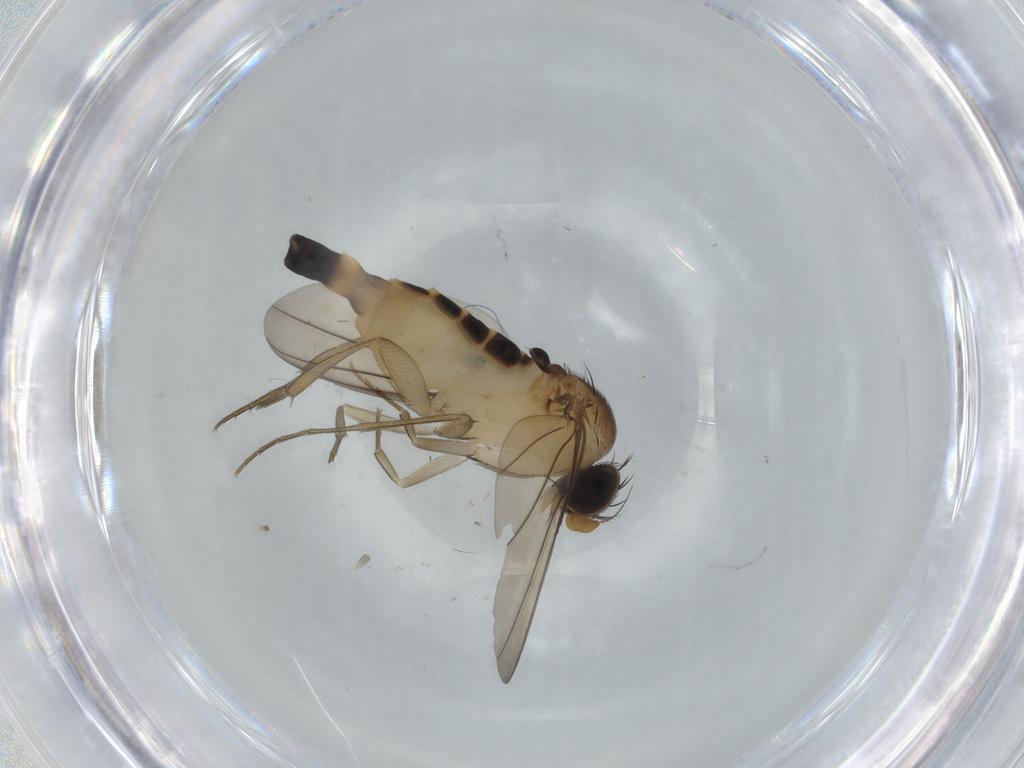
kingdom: Animalia
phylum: Arthropoda
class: Insecta
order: Diptera
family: Phoridae
